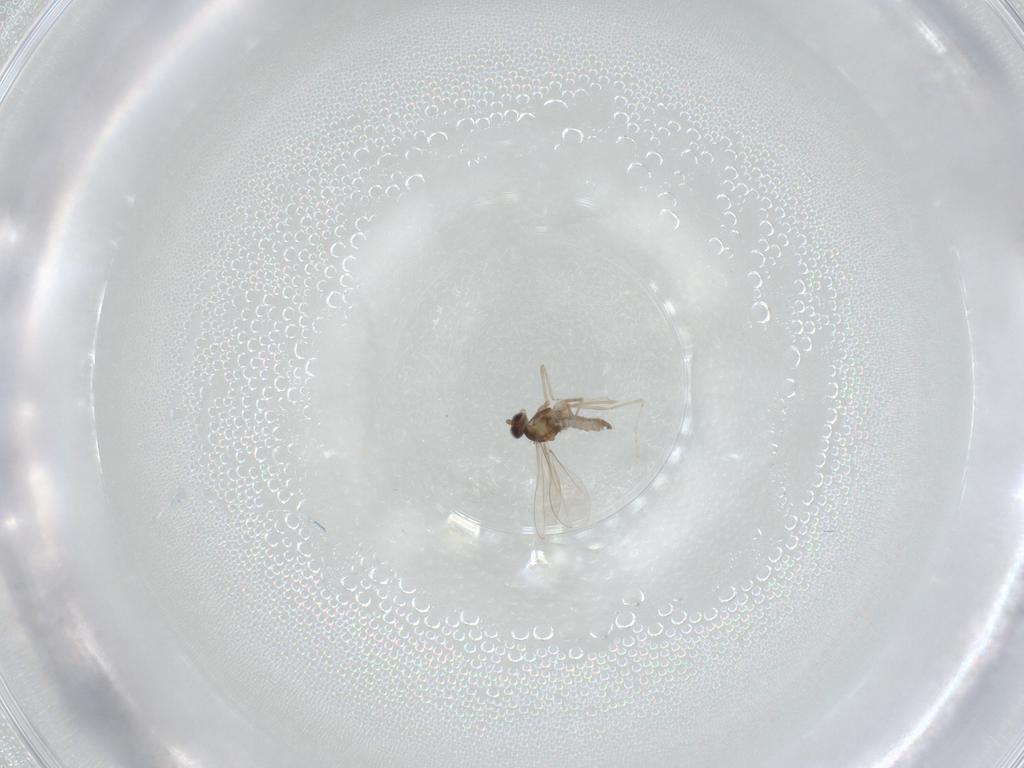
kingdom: Animalia
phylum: Arthropoda
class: Insecta
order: Diptera
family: Cecidomyiidae
